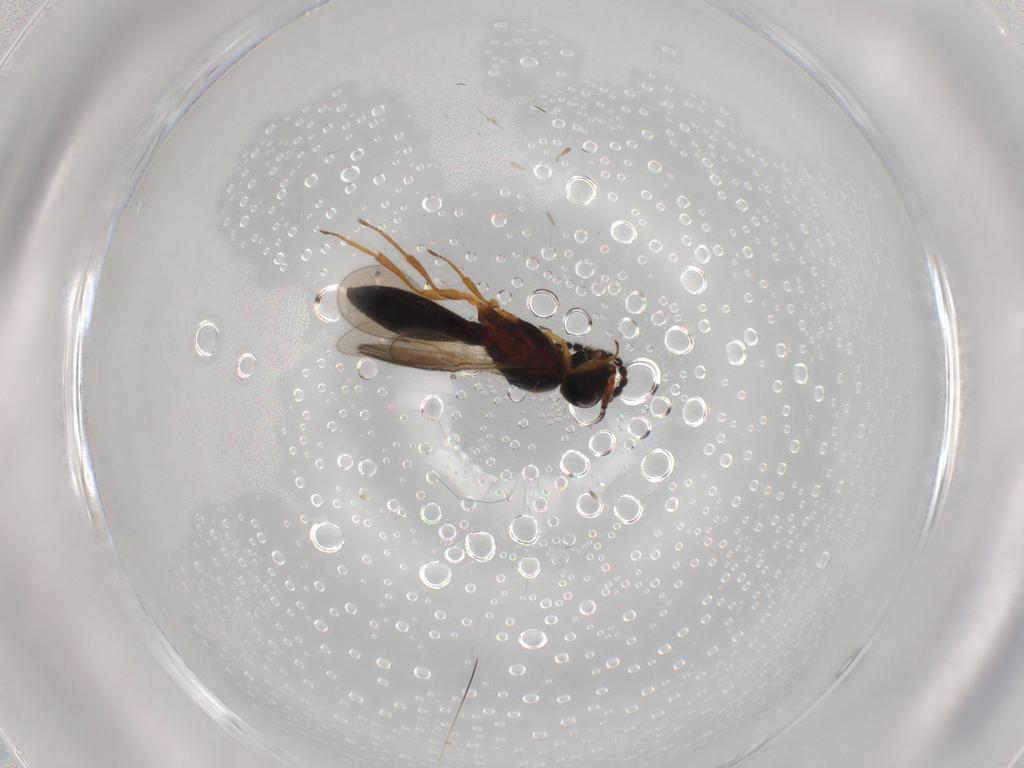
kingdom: Animalia
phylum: Arthropoda
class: Insecta
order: Hymenoptera
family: Scelionidae
